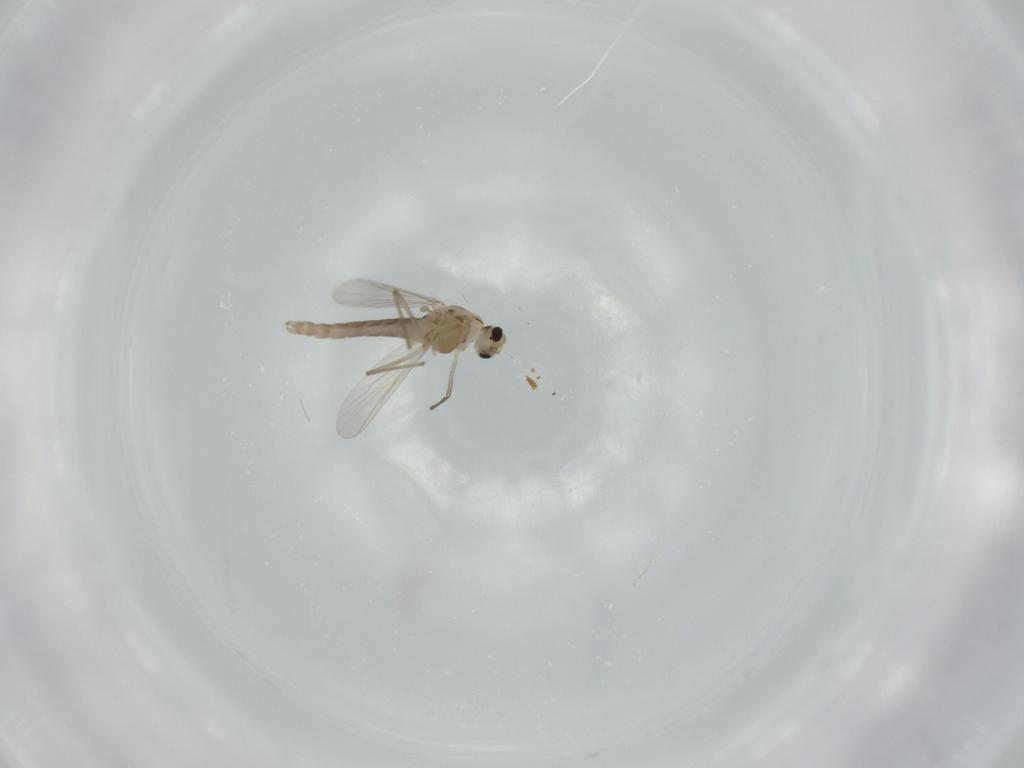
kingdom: Animalia
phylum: Arthropoda
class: Insecta
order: Diptera
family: Chironomidae
